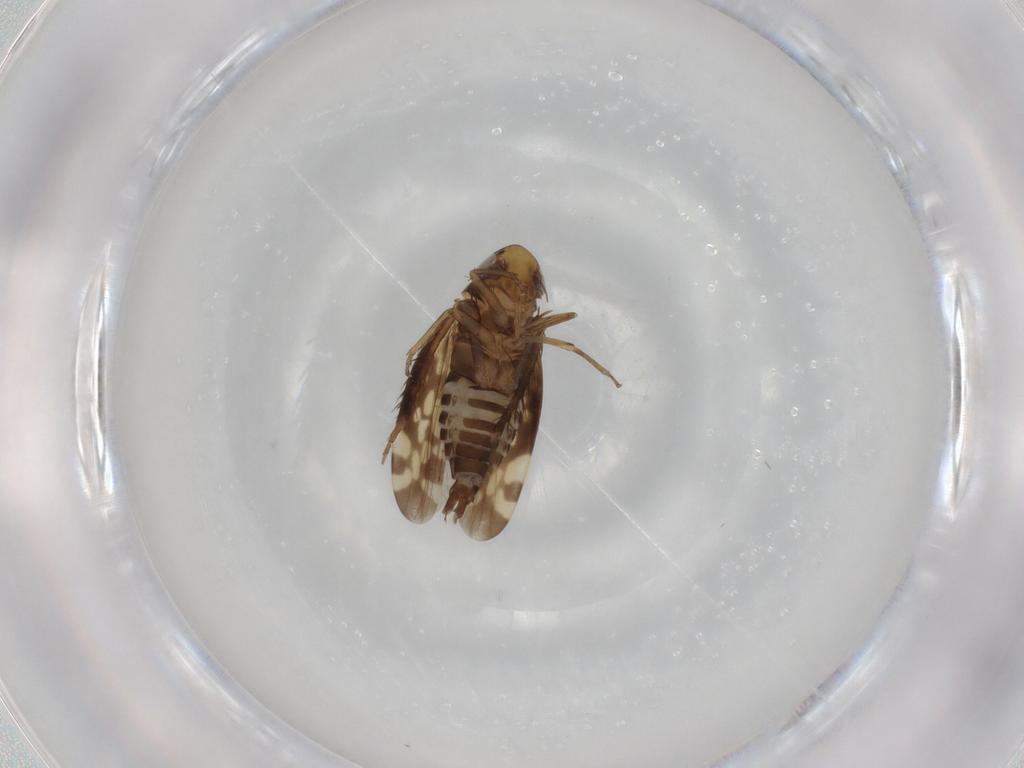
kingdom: Animalia
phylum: Arthropoda
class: Insecta
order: Hemiptera
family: Cicadellidae
